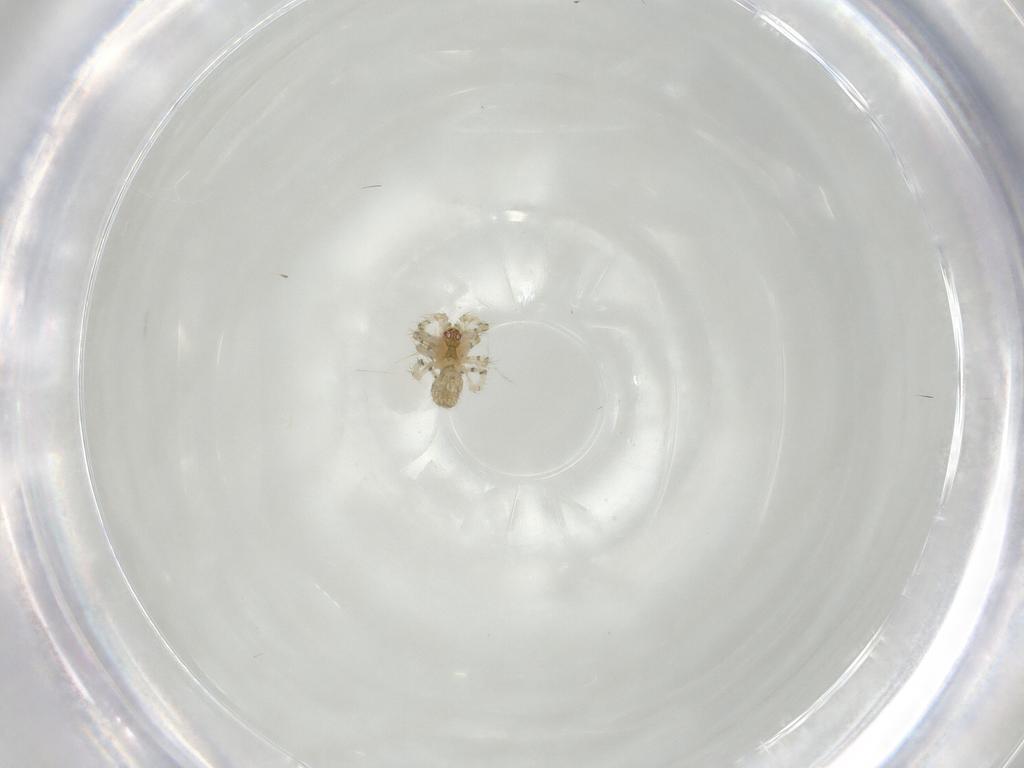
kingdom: Animalia
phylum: Arthropoda
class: Arachnida
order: Araneae
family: Theridiidae
